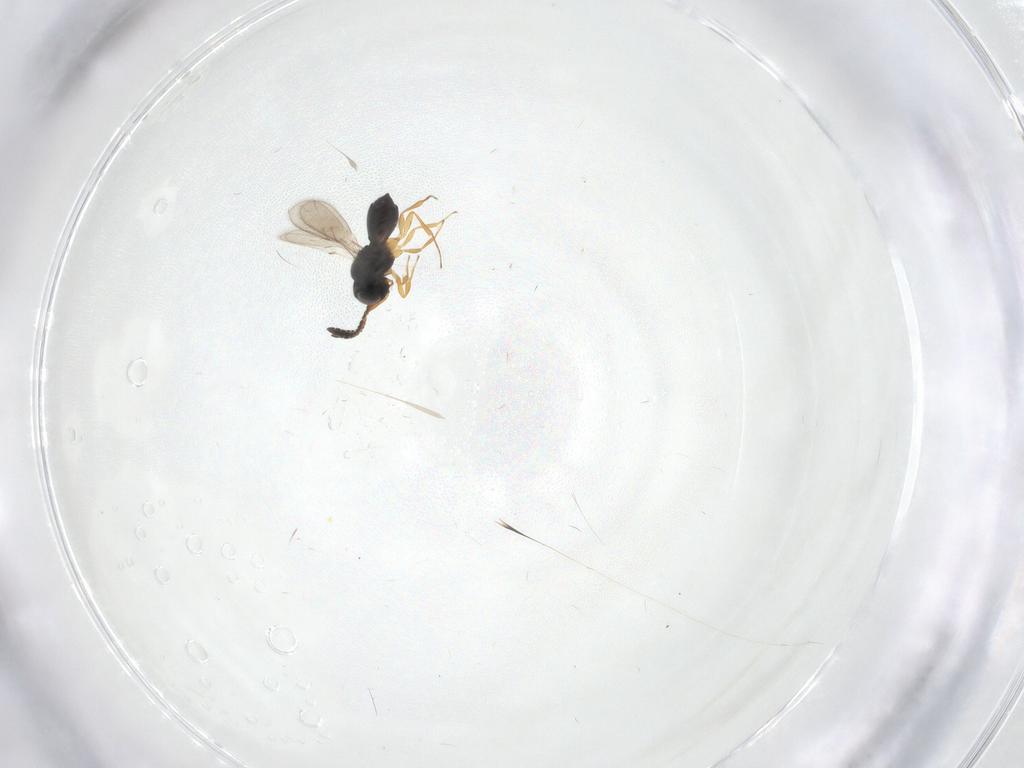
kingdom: Animalia
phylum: Arthropoda
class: Insecta
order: Hymenoptera
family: Scelionidae
